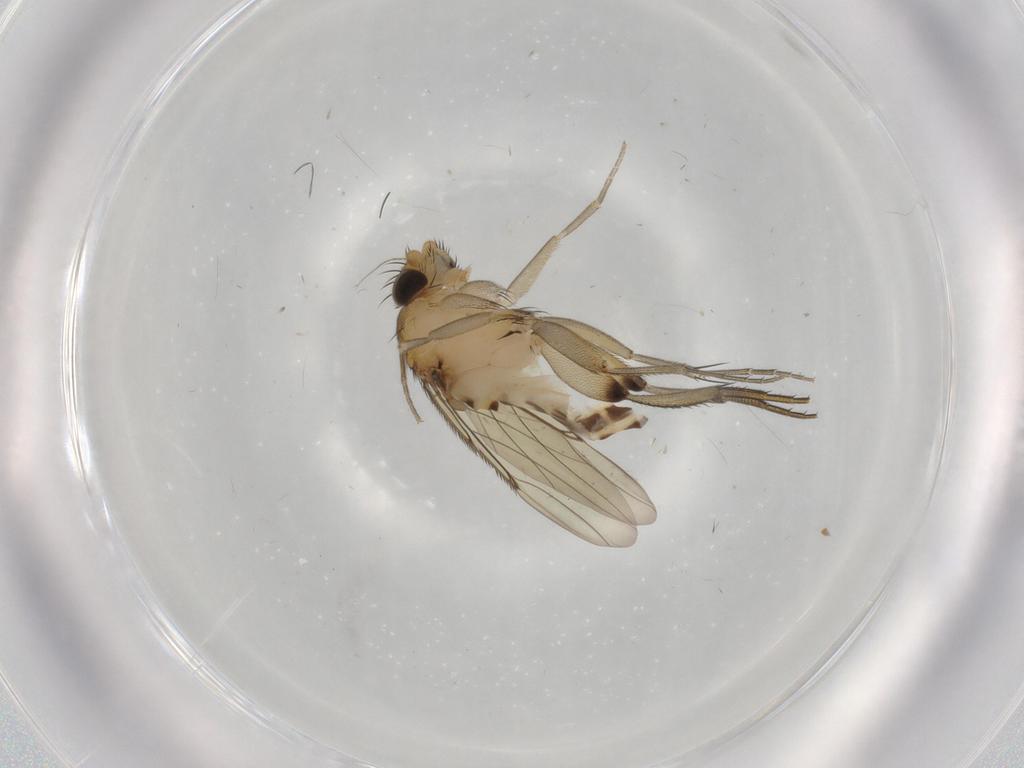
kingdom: Animalia
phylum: Arthropoda
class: Insecta
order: Diptera
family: Phoridae
